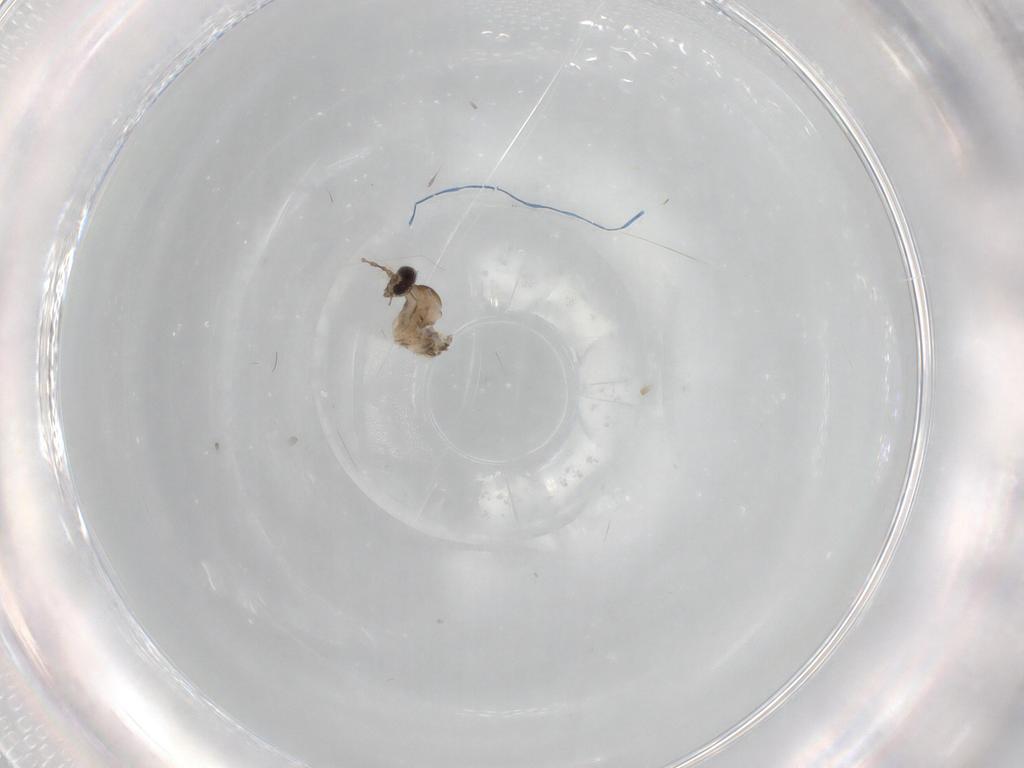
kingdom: Animalia
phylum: Arthropoda
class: Insecta
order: Diptera
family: Cecidomyiidae
